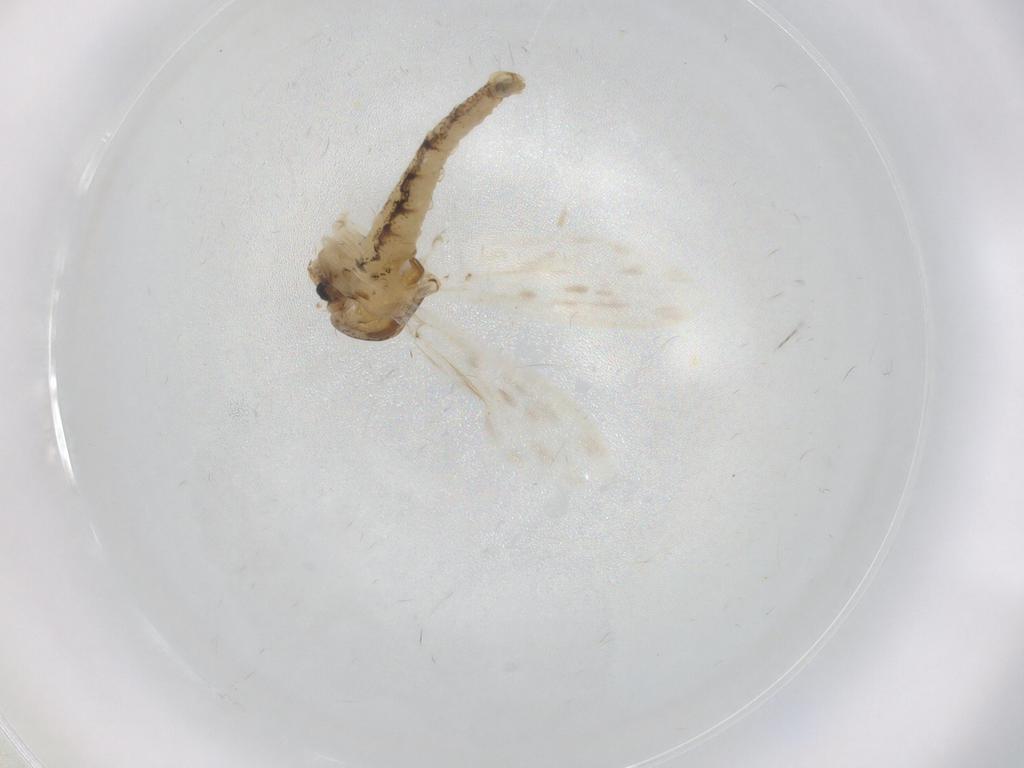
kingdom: Animalia
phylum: Arthropoda
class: Insecta
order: Diptera
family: Chaoboridae
